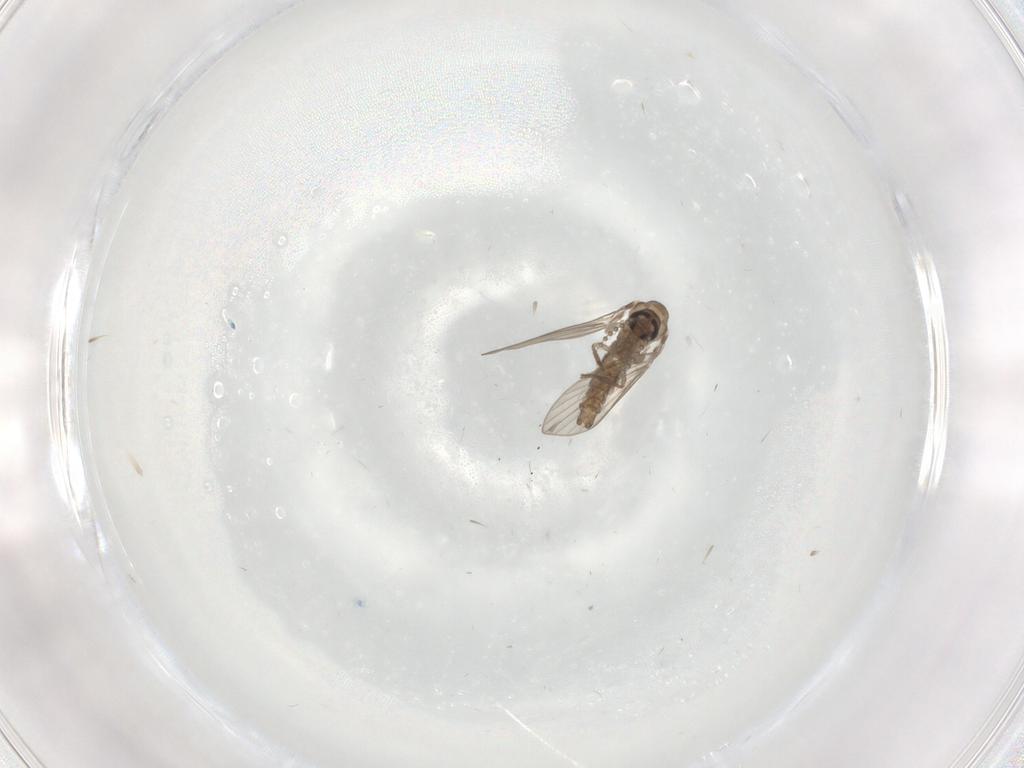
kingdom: Animalia
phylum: Arthropoda
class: Insecta
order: Diptera
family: Psychodidae
